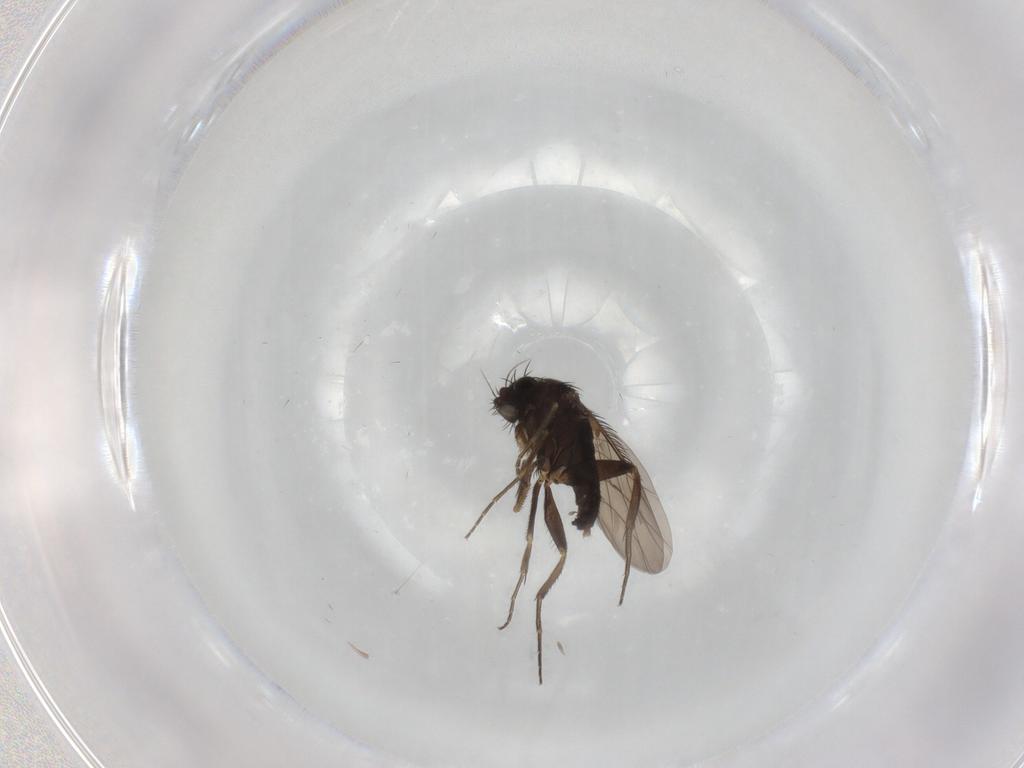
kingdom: Animalia
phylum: Arthropoda
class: Insecta
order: Diptera
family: Phoridae
